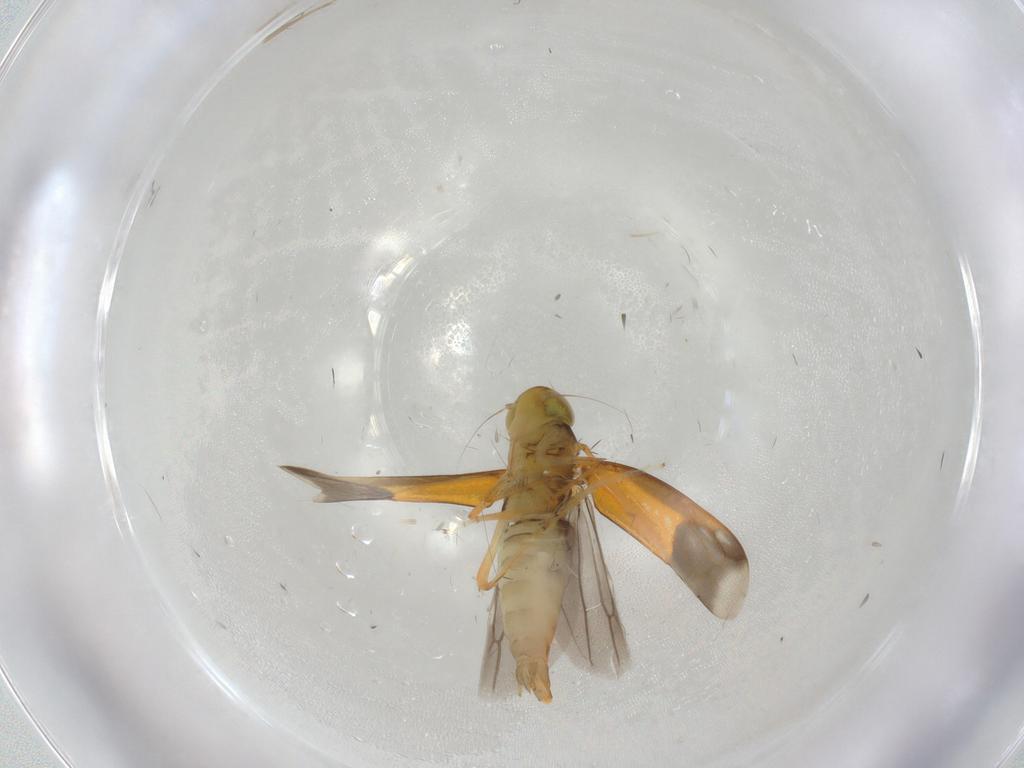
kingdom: Animalia
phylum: Arthropoda
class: Insecta
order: Hemiptera
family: Cicadellidae
